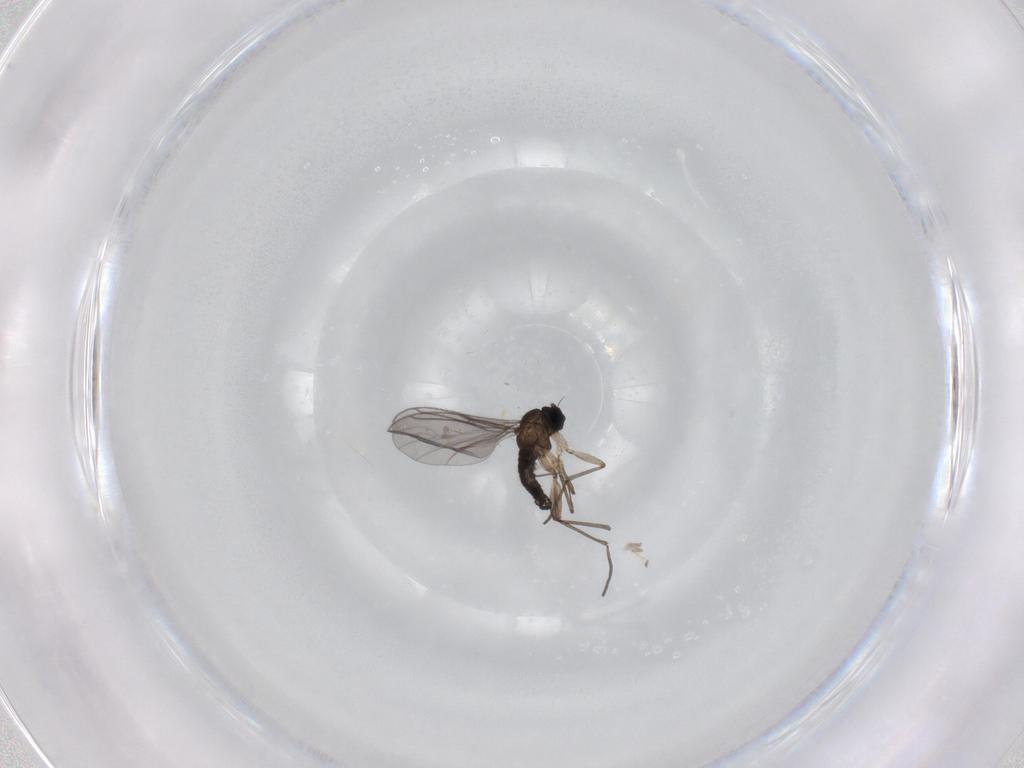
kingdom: Animalia
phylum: Arthropoda
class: Insecta
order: Diptera
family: Sciaridae
